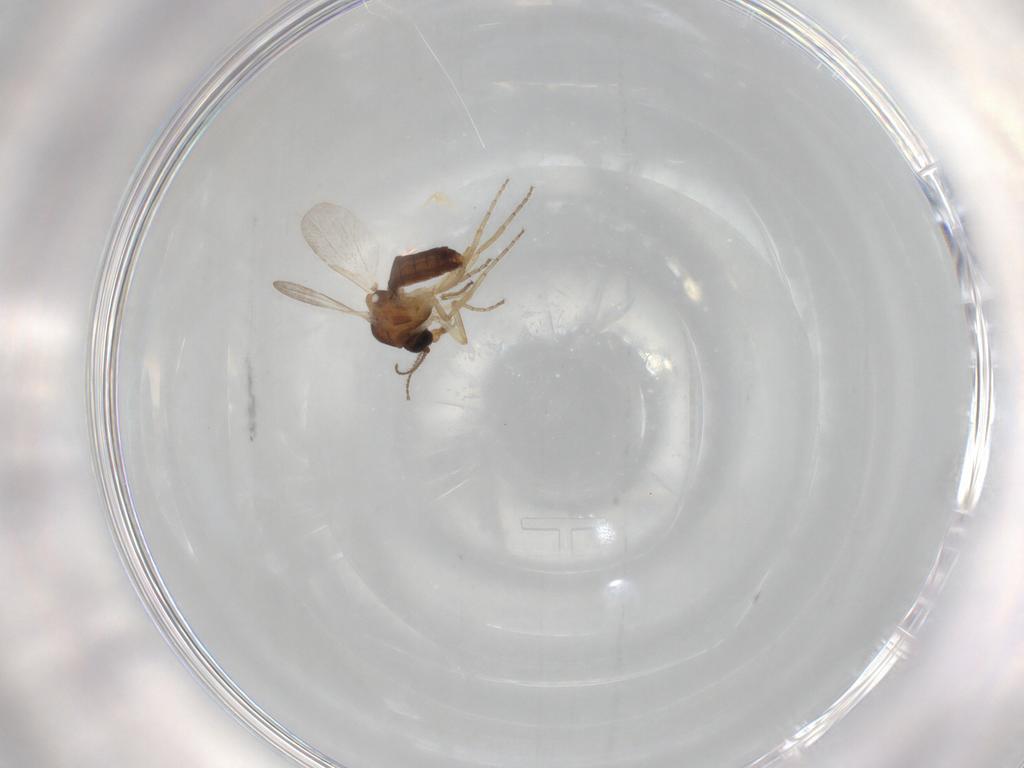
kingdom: Animalia
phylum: Arthropoda
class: Insecta
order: Diptera
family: Ceratopogonidae
